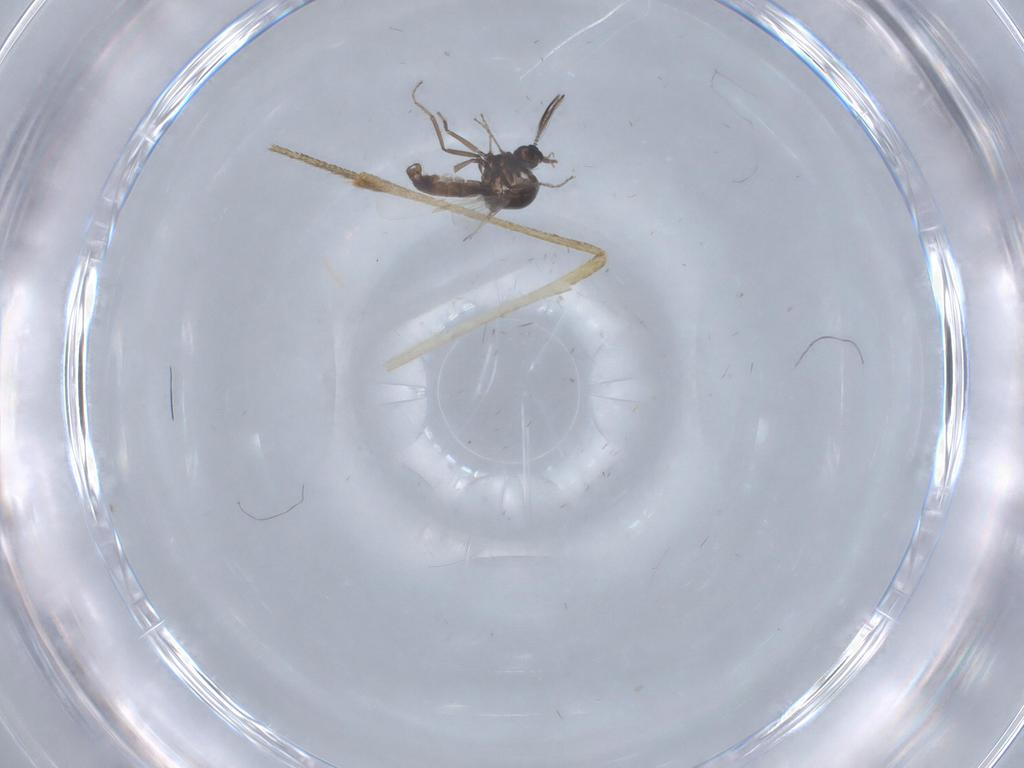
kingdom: Animalia
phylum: Arthropoda
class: Insecta
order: Diptera
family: Ceratopogonidae
